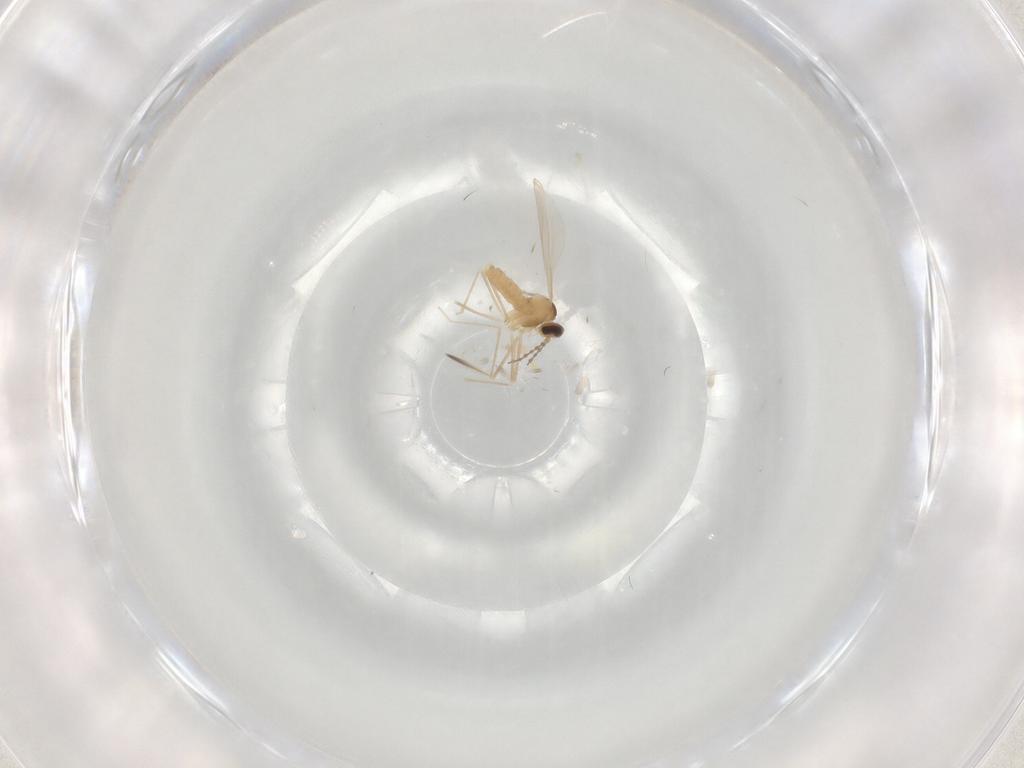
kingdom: Animalia
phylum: Arthropoda
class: Insecta
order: Diptera
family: Cecidomyiidae
